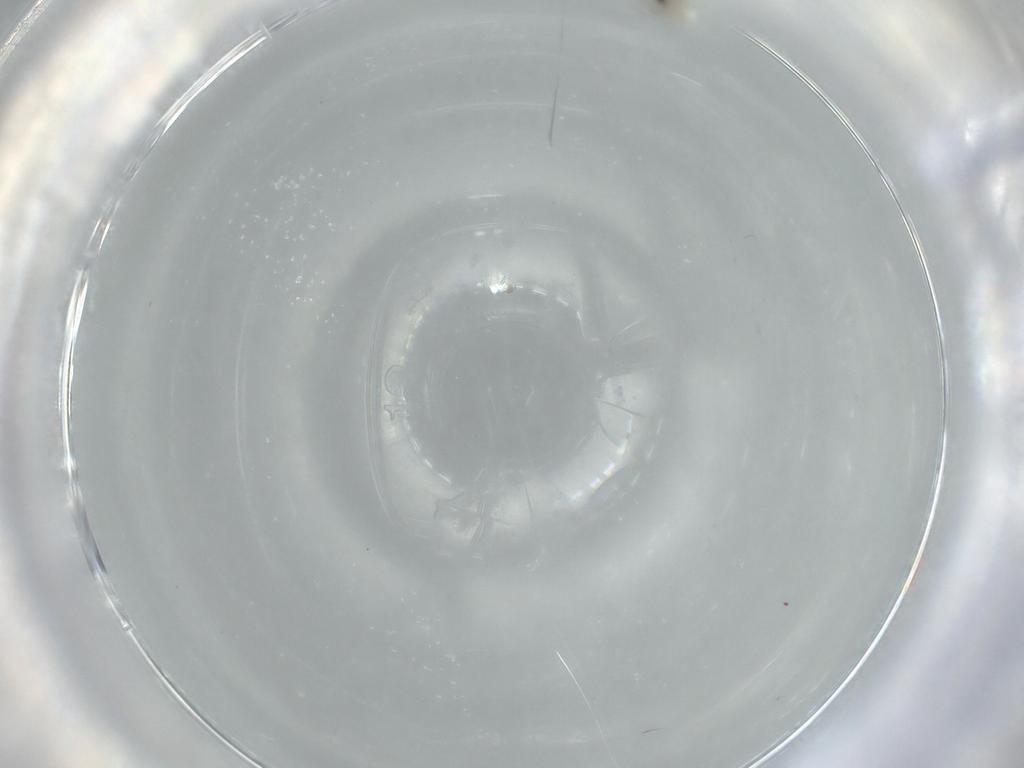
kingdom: Animalia
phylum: Arthropoda
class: Insecta
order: Diptera
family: Cecidomyiidae
